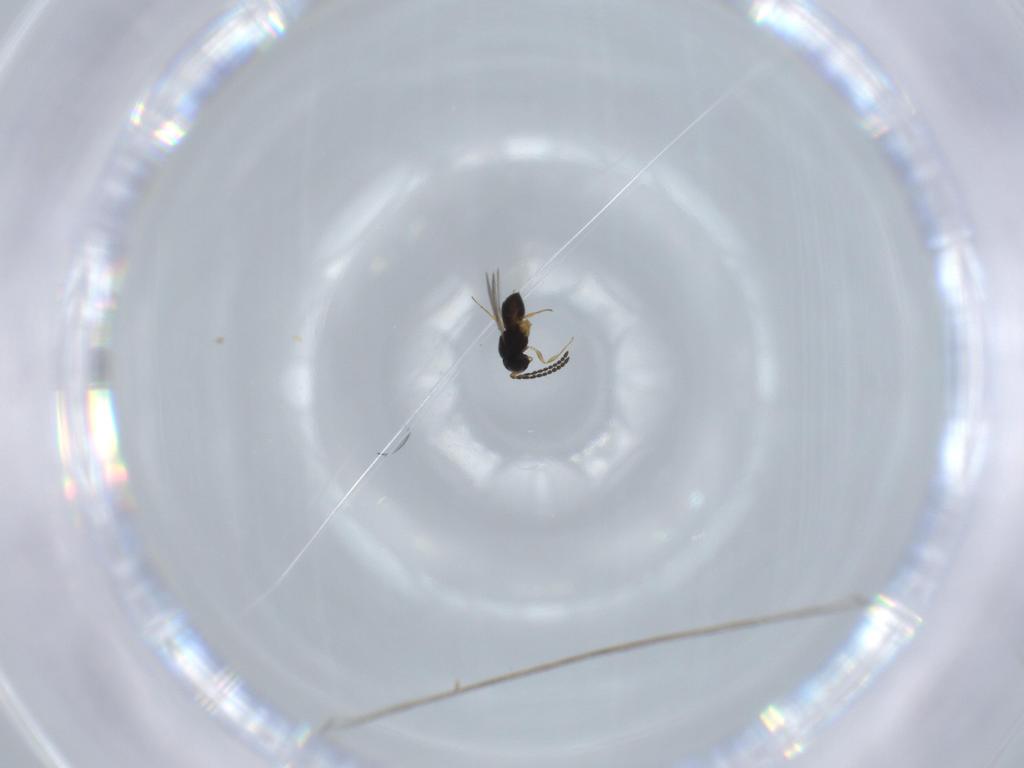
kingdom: Animalia
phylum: Arthropoda
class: Insecta
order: Hymenoptera
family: Scelionidae
